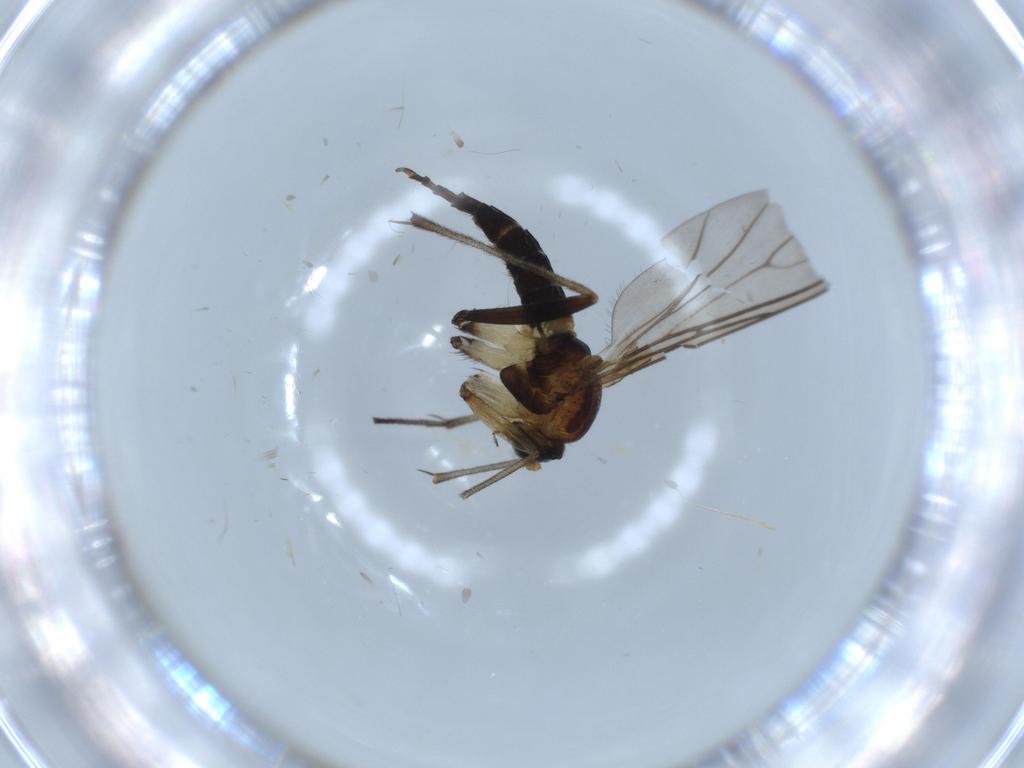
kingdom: Animalia
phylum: Arthropoda
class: Insecta
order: Diptera
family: Sciaridae
